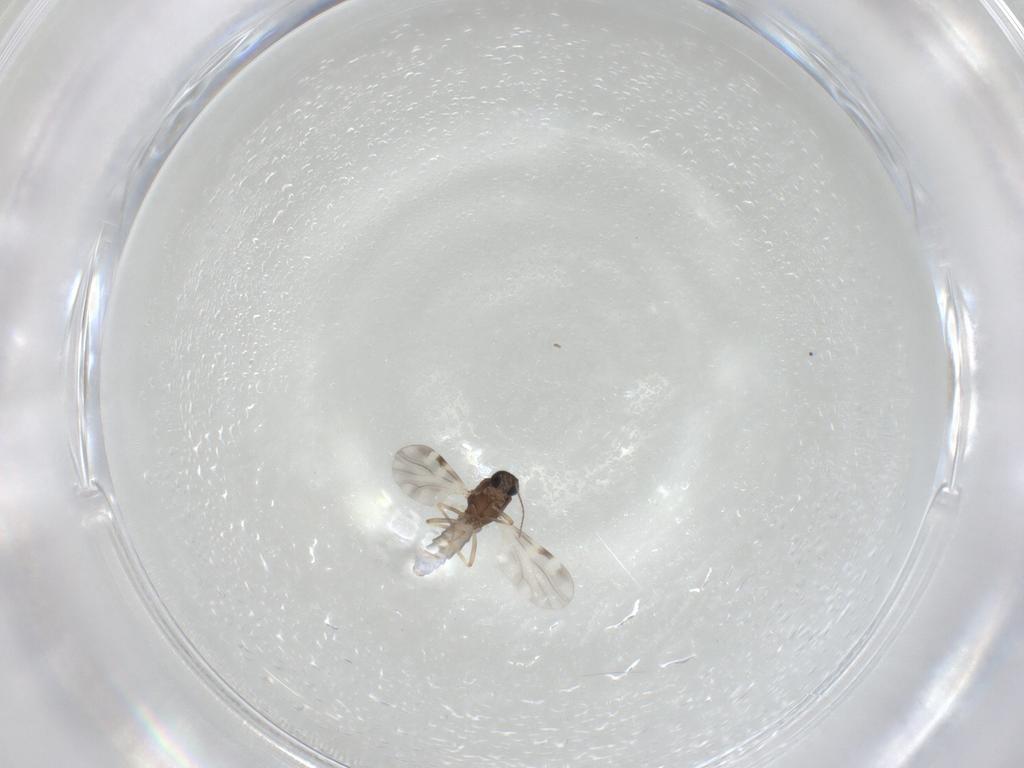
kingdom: Animalia
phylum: Arthropoda
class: Insecta
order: Diptera
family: Ceratopogonidae
